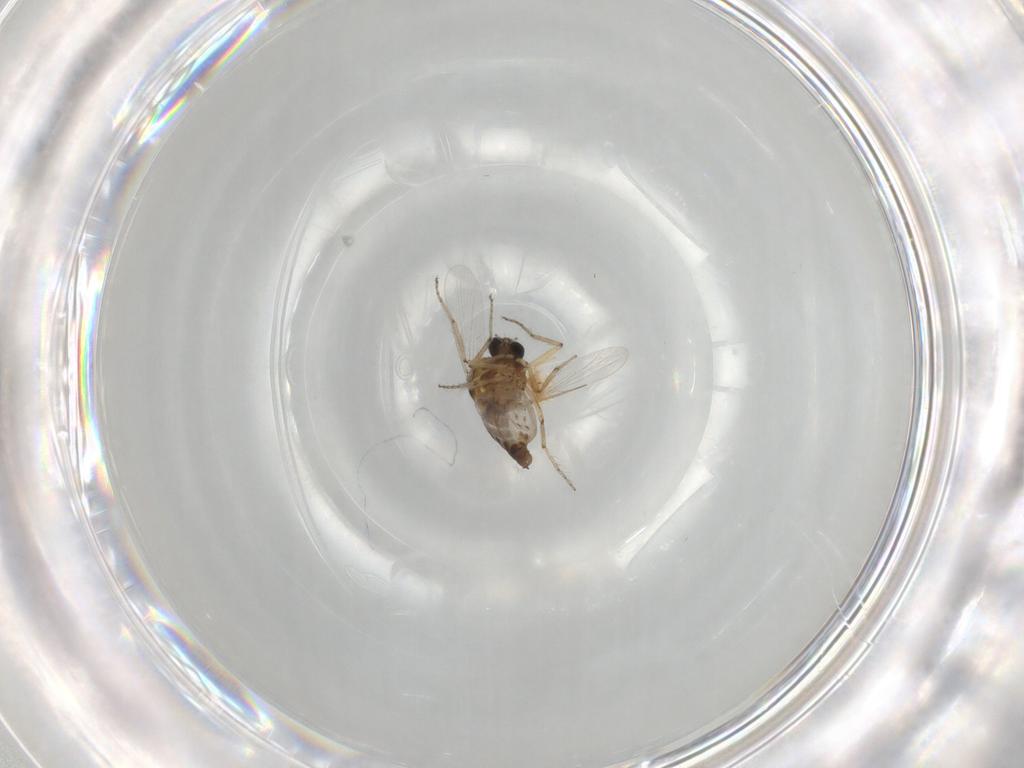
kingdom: Animalia
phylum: Arthropoda
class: Insecta
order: Diptera
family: Ceratopogonidae
